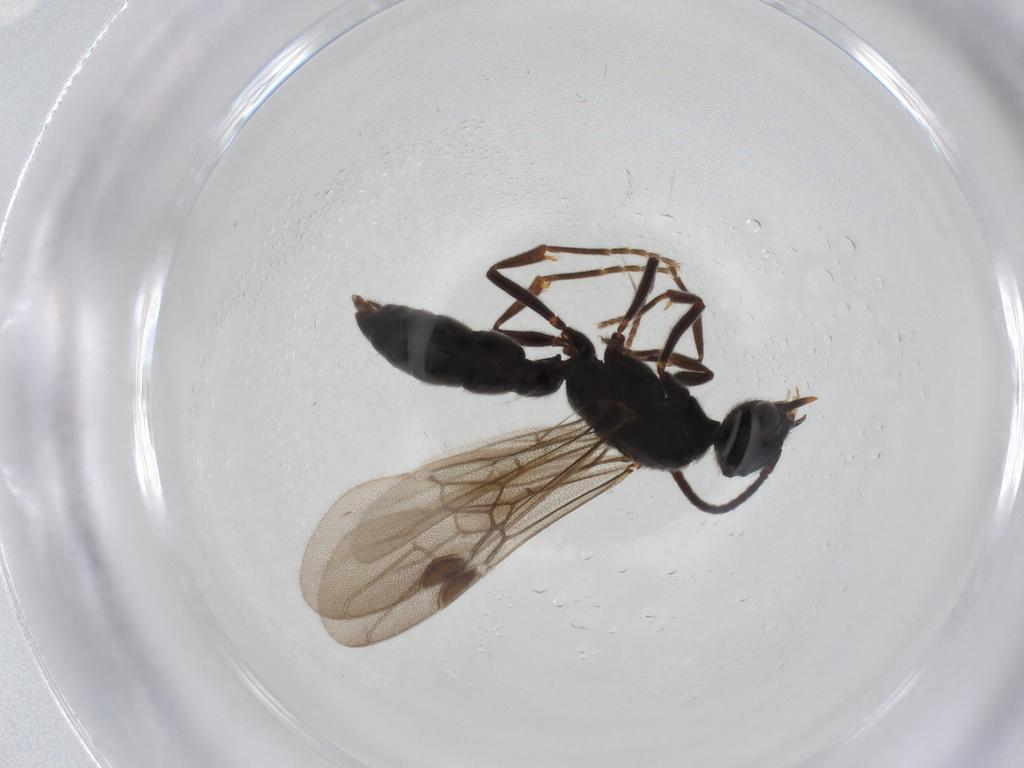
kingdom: Animalia
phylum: Arthropoda
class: Insecta
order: Hymenoptera
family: Formicidae
